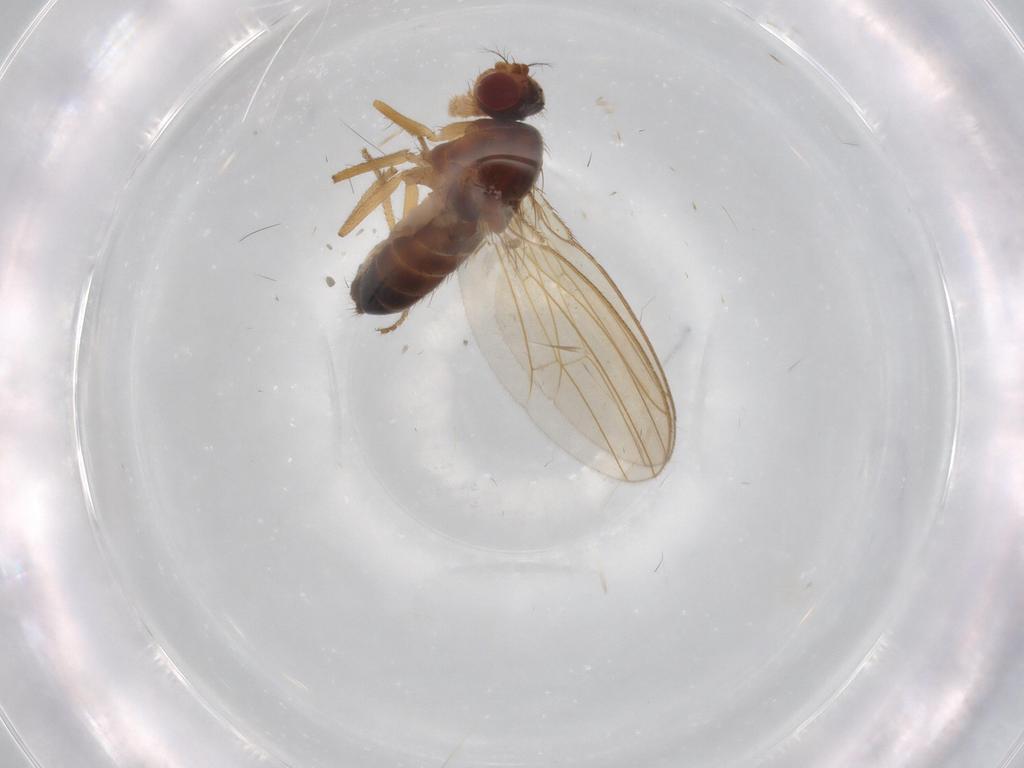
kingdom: Animalia
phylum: Arthropoda
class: Insecta
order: Diptera
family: Drosophilidae
